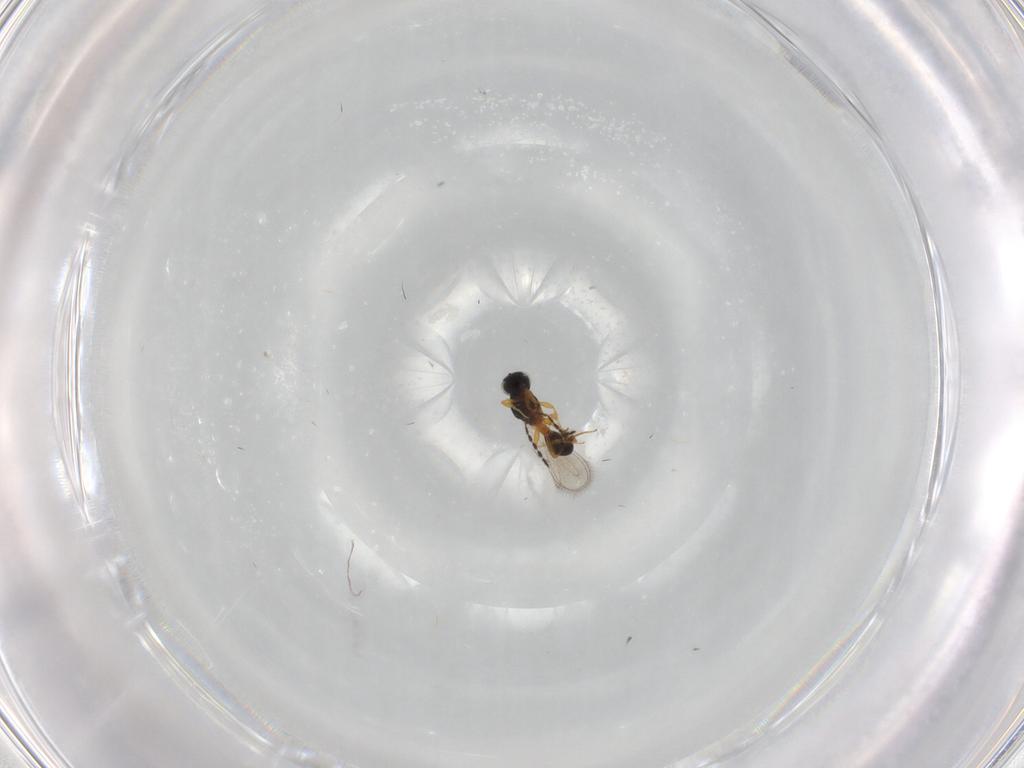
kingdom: Animalia
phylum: Arthropoda
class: Insecta
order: Hymenoptera
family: Platygastridae
